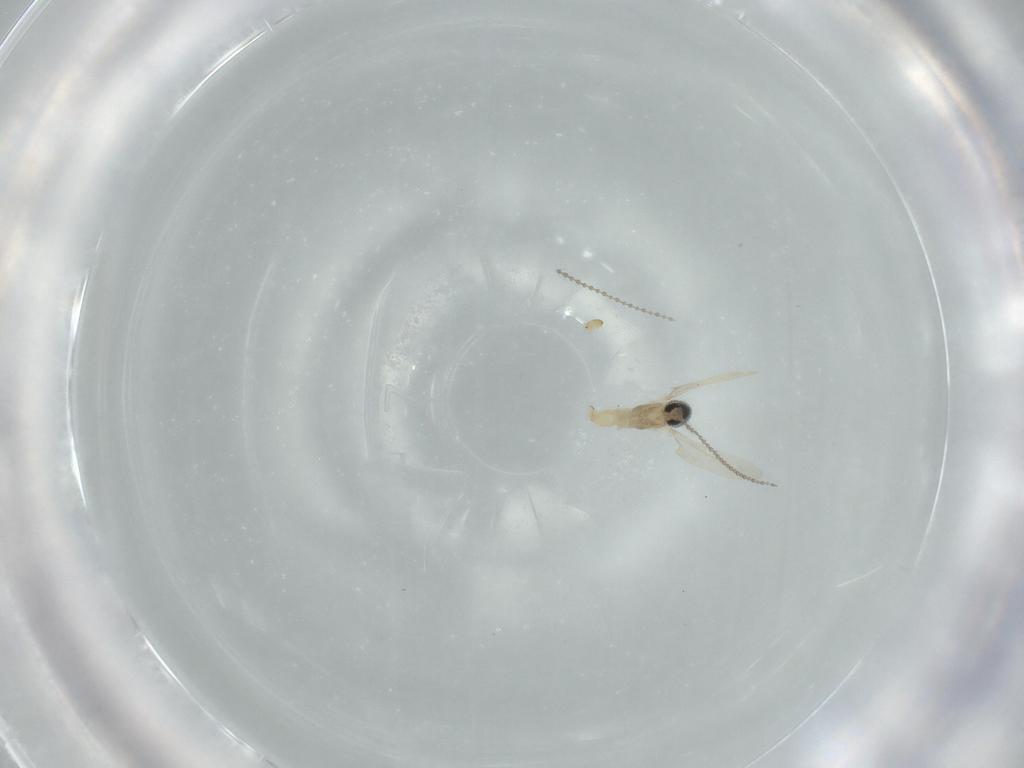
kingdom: Animalia
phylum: Arthropoda
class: Insecta
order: Diptera
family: Cecidomyiidae
